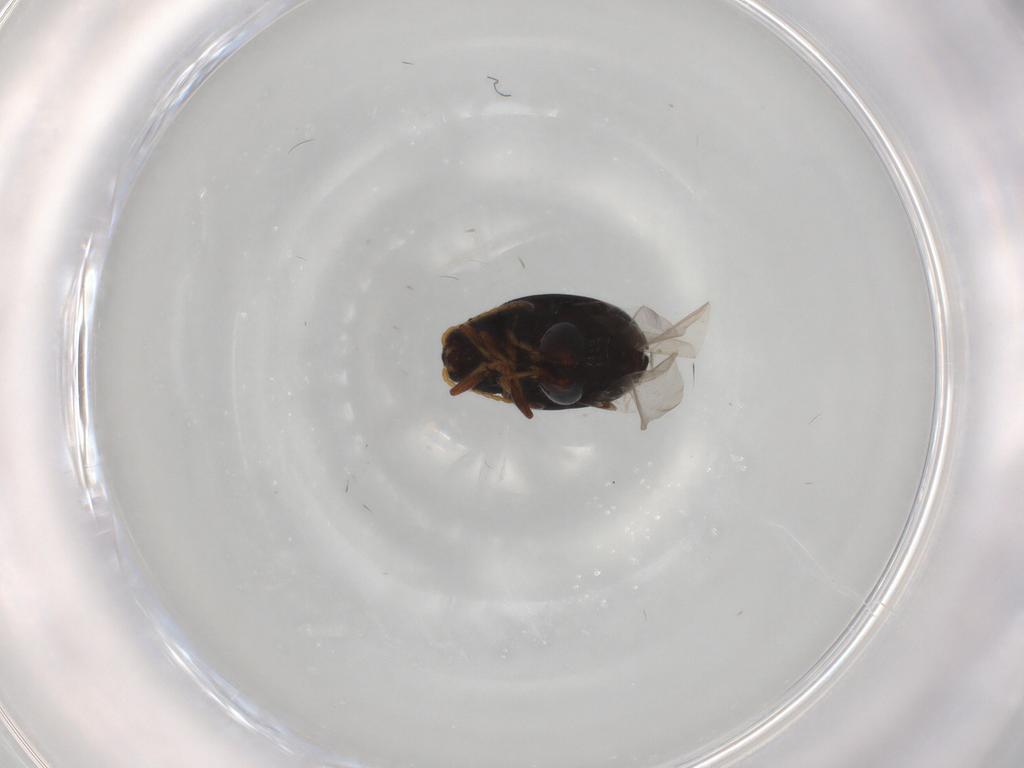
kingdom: Animalia
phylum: Arthropoda
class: Insecta
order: Coleoptera
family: Chrysomelidae
